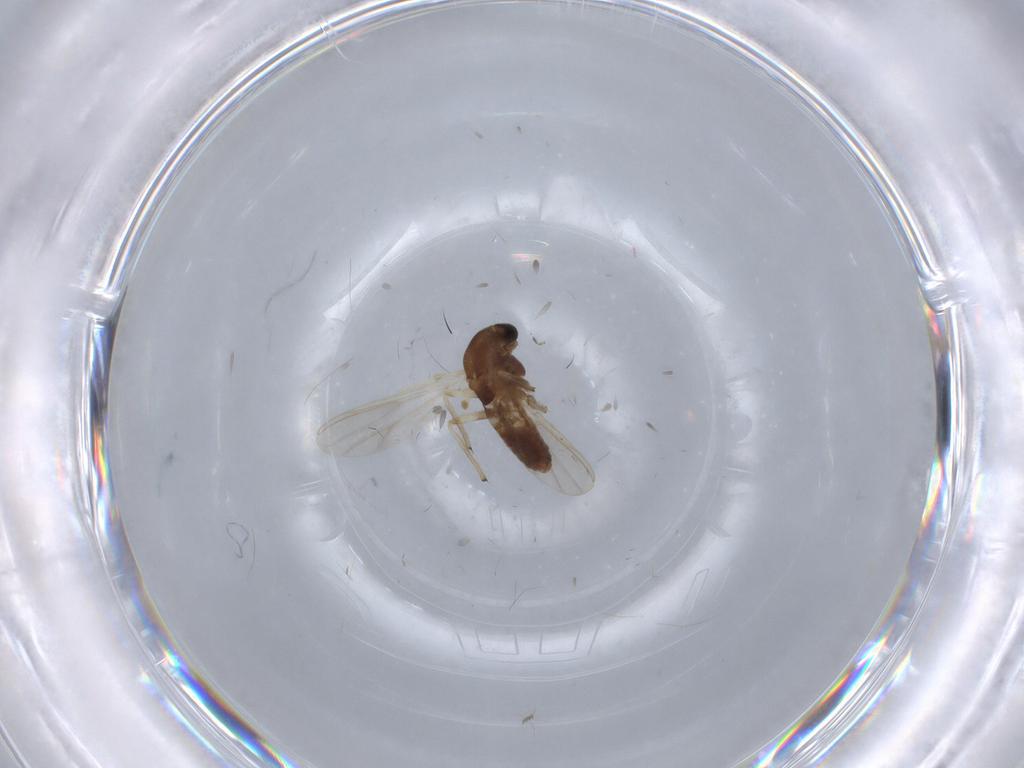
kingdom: Animalia
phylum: Arthropoda
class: Insecta
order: Diptera
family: Chironomidae
